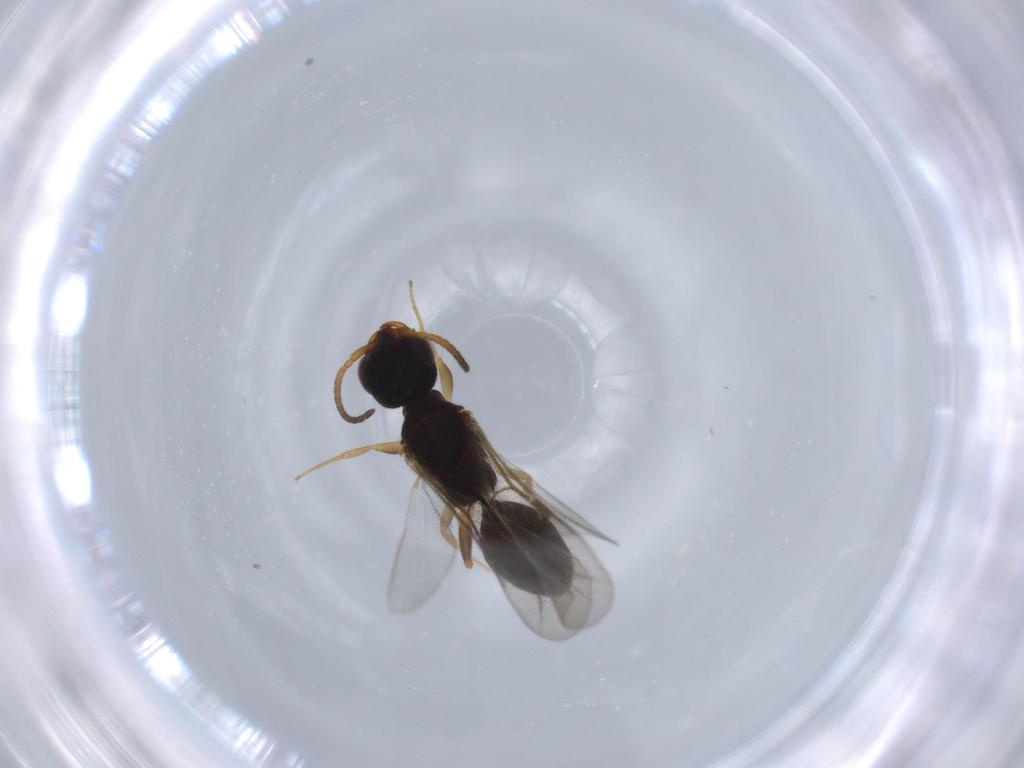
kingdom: Animalia
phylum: Arthropoda
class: Insecta
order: Hymenoptera
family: Bethylidae
